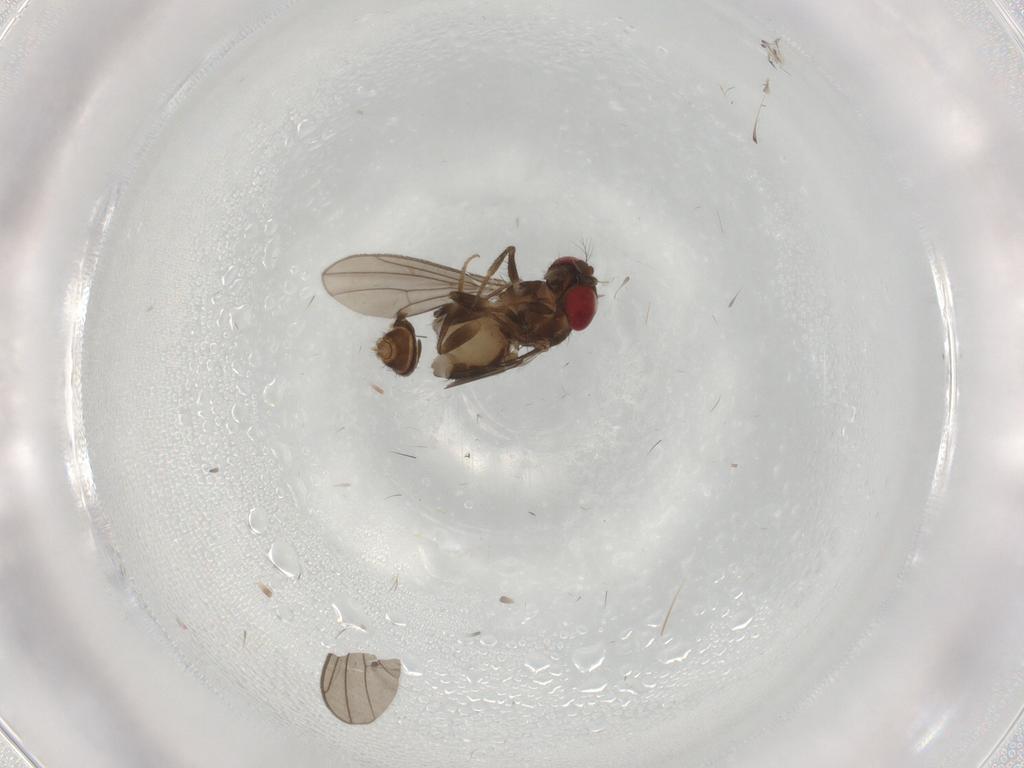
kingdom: Animalia
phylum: Arthropoda
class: Insecta
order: Diptera
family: Drosophilidae
